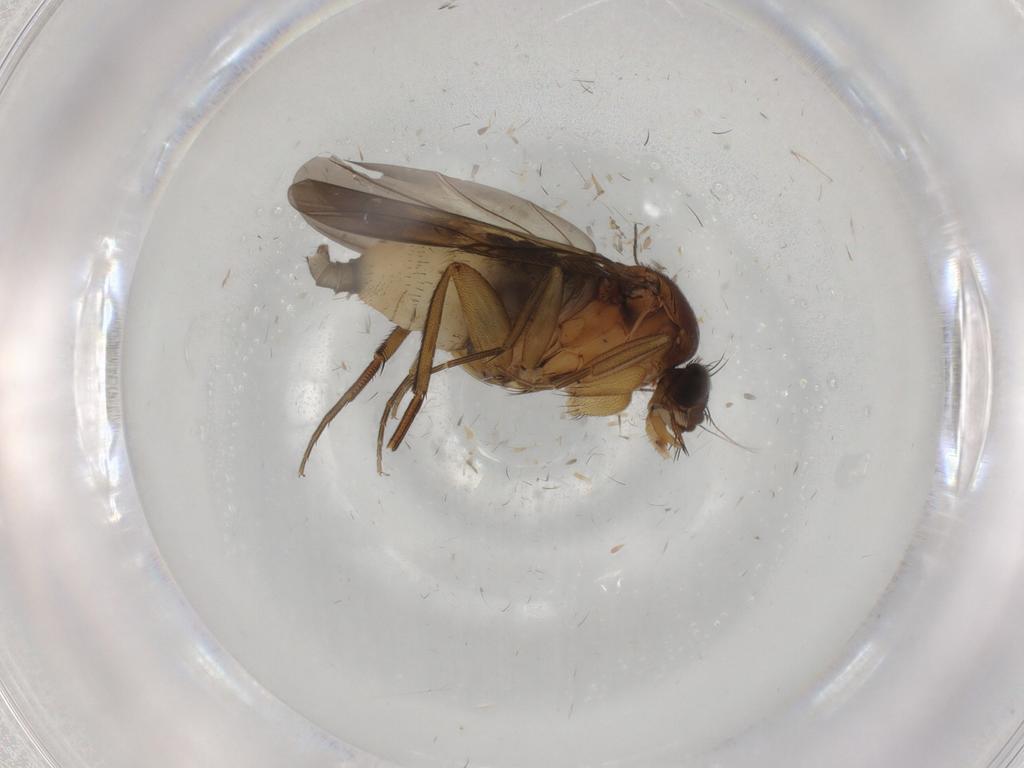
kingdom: Animalia
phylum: Arthropoda
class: Insecta
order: Diptera
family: Phoridae
